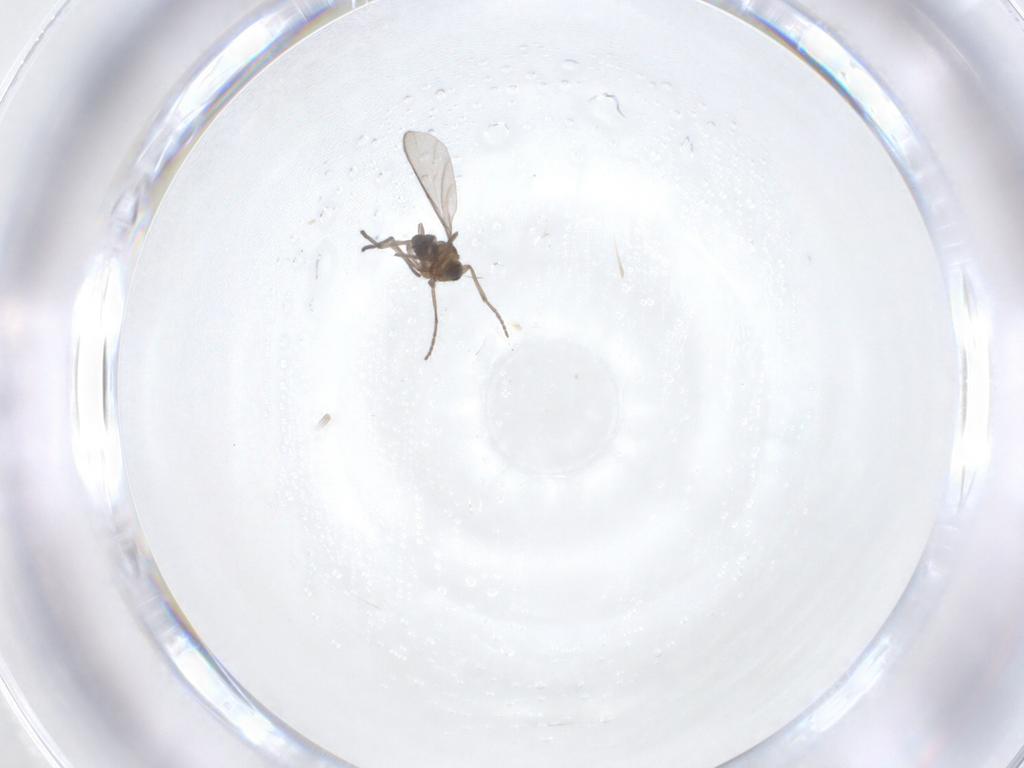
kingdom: Animalia
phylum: Arthropoda
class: Insecta
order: Diptera
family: Sciaridae
